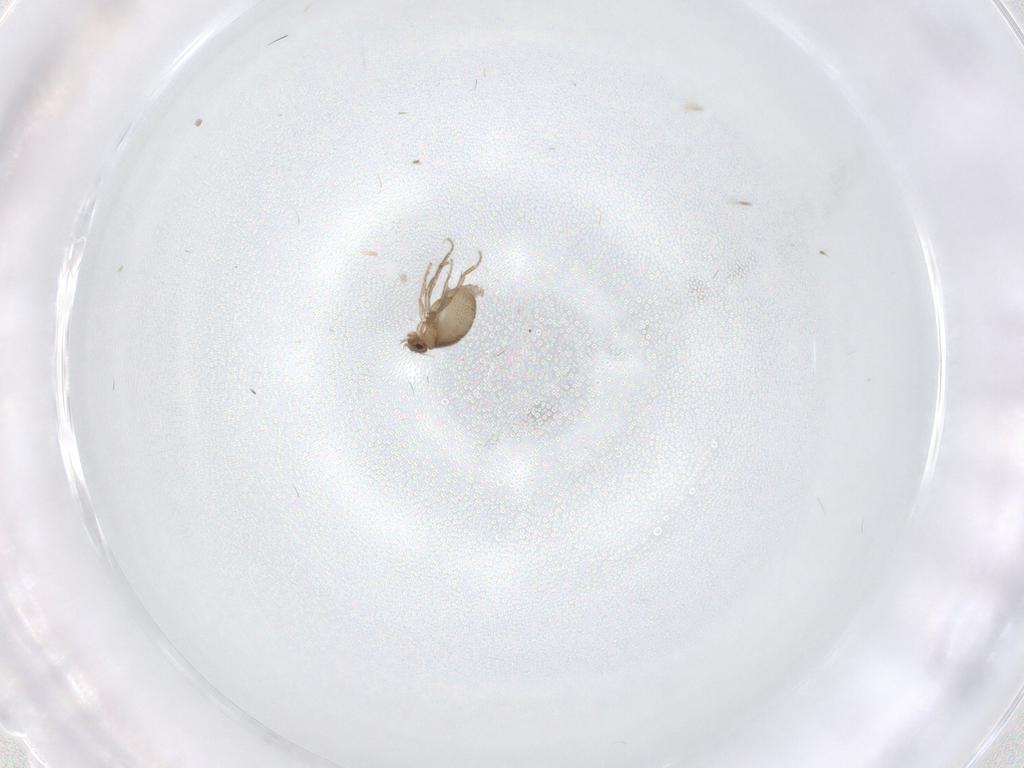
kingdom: Animalia
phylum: Arthropoda
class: Insecta
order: Diptera
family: Phoridae
